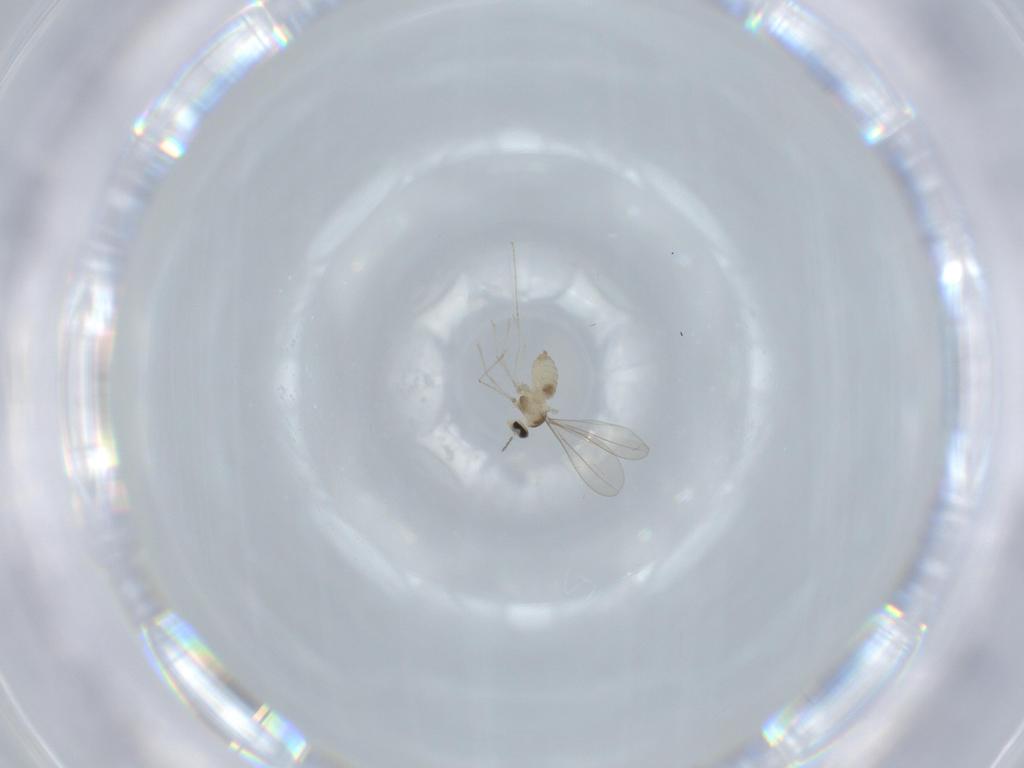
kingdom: Animalia
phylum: Arthropoda
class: Insecta
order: Diptera
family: Cecidomyiidae
